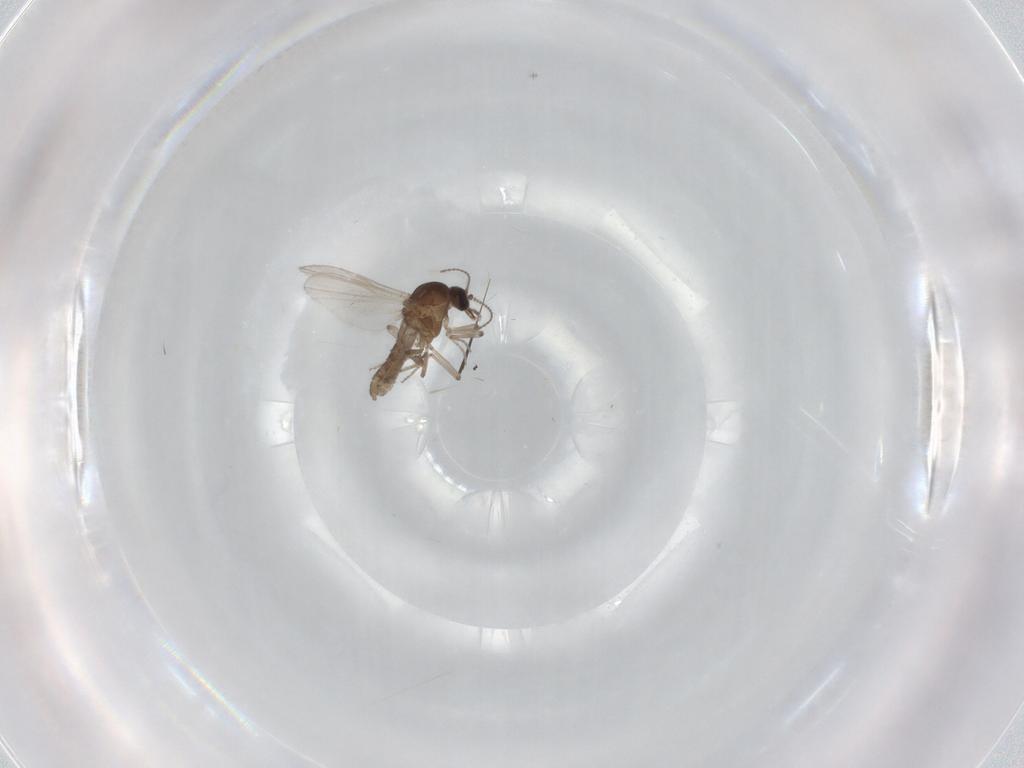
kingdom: Animalia
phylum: Arthropoda
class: Insecta
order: Diptera
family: Ceratopogonidae
